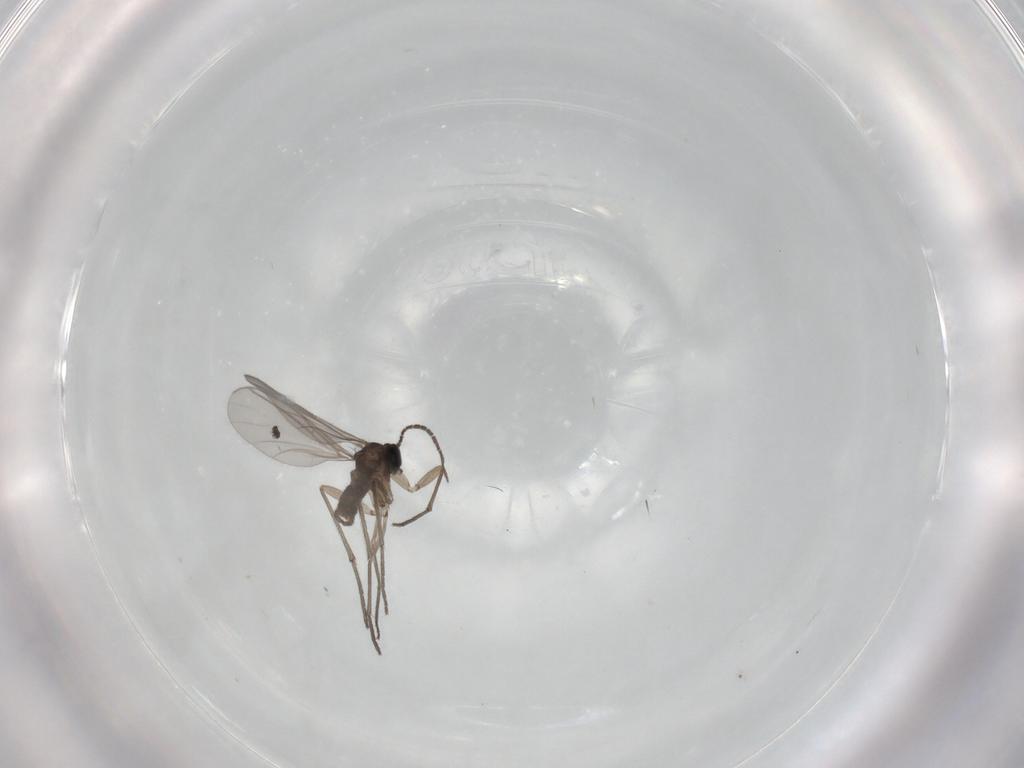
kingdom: Animalia
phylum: Arthropoda
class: Insecta
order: Diptera
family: Sciaridae
